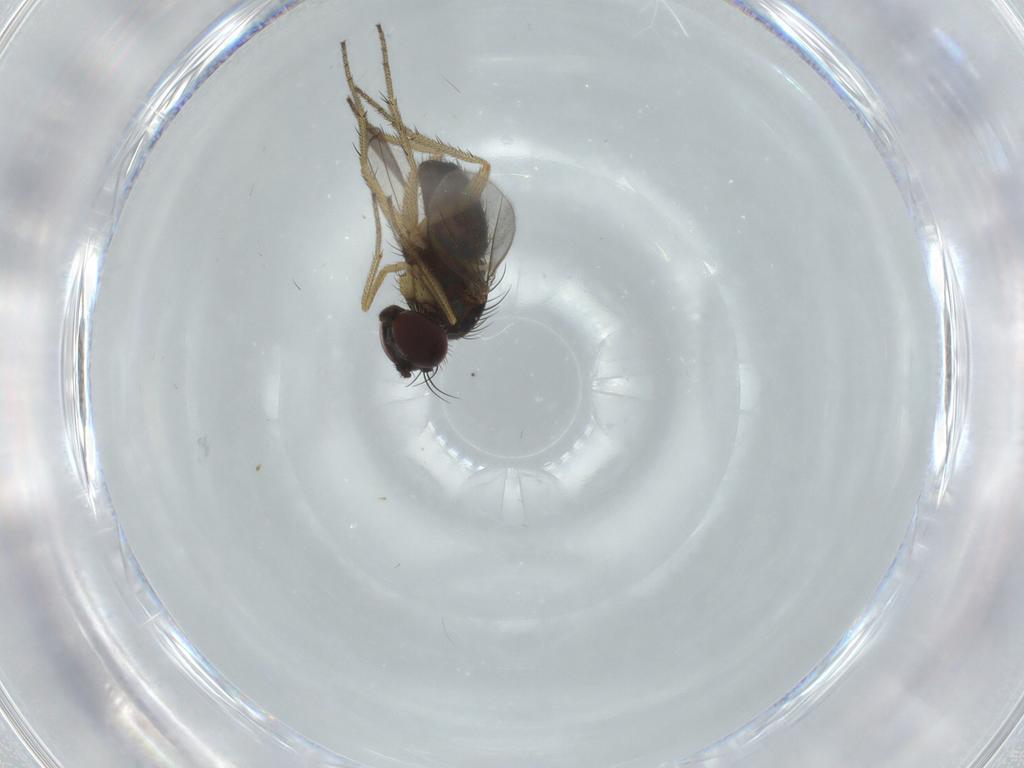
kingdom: Animalia
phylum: Arthropoda
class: Insecta
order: Diptera
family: Dolichopodidae
